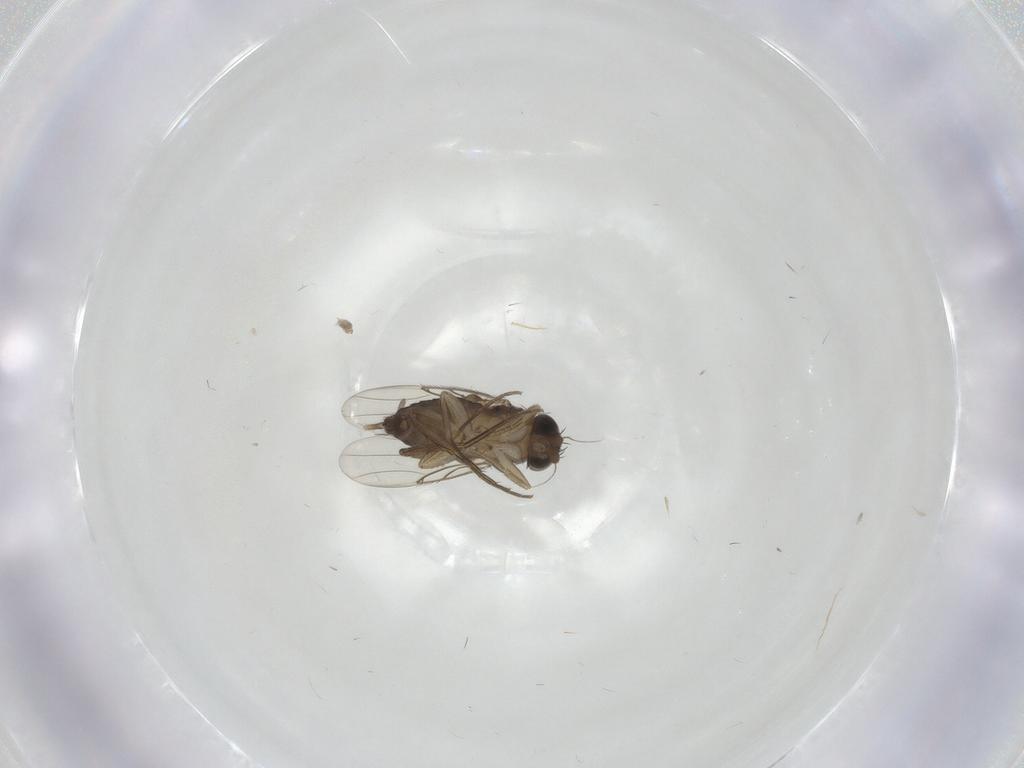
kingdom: Animalia
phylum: Arthropoda
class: Insecta
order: Diptera
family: Phoridae
